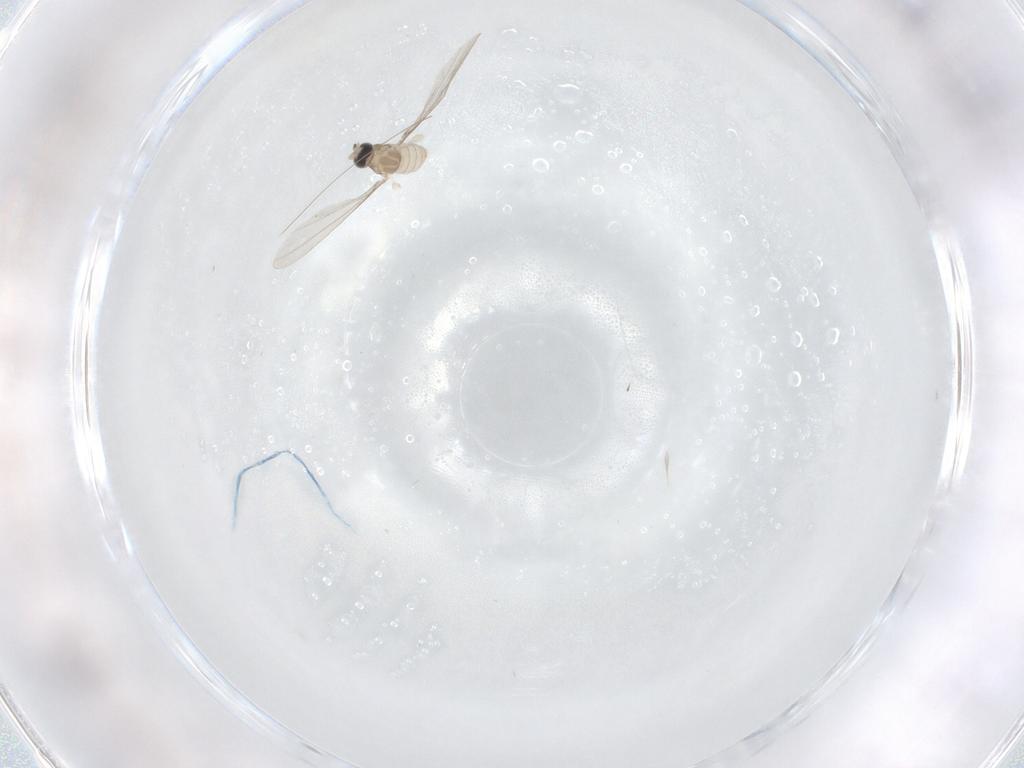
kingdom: Animalia
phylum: Arthropoda
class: Insecta
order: Diptera
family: Cecidomyiidae
